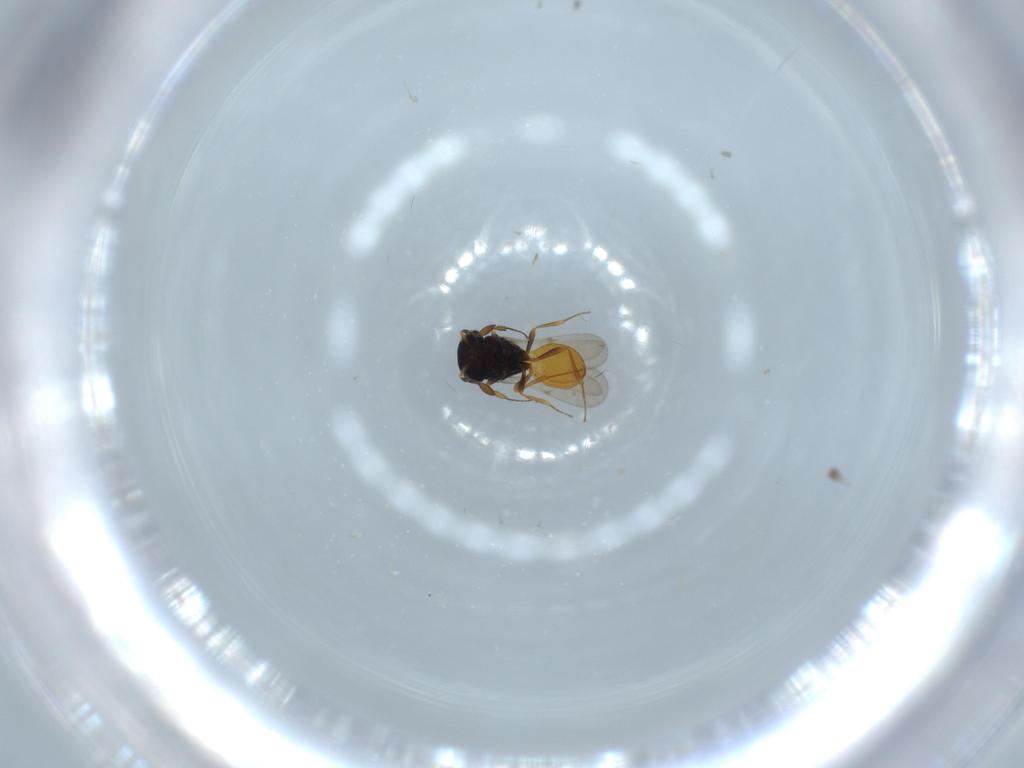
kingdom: Animalia
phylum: Arthropoda
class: Insecta
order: Hymenoptera
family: Scelionidae
